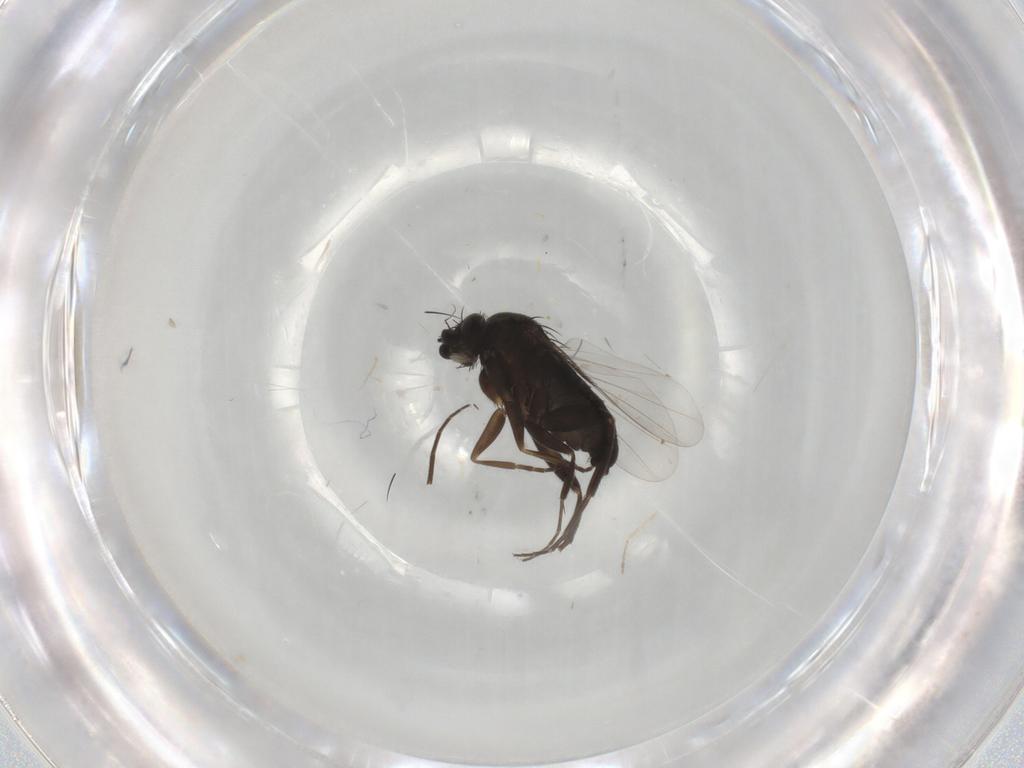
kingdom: Animalia
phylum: Arthropoda
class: Insecta
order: Diptera
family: Phoridae
